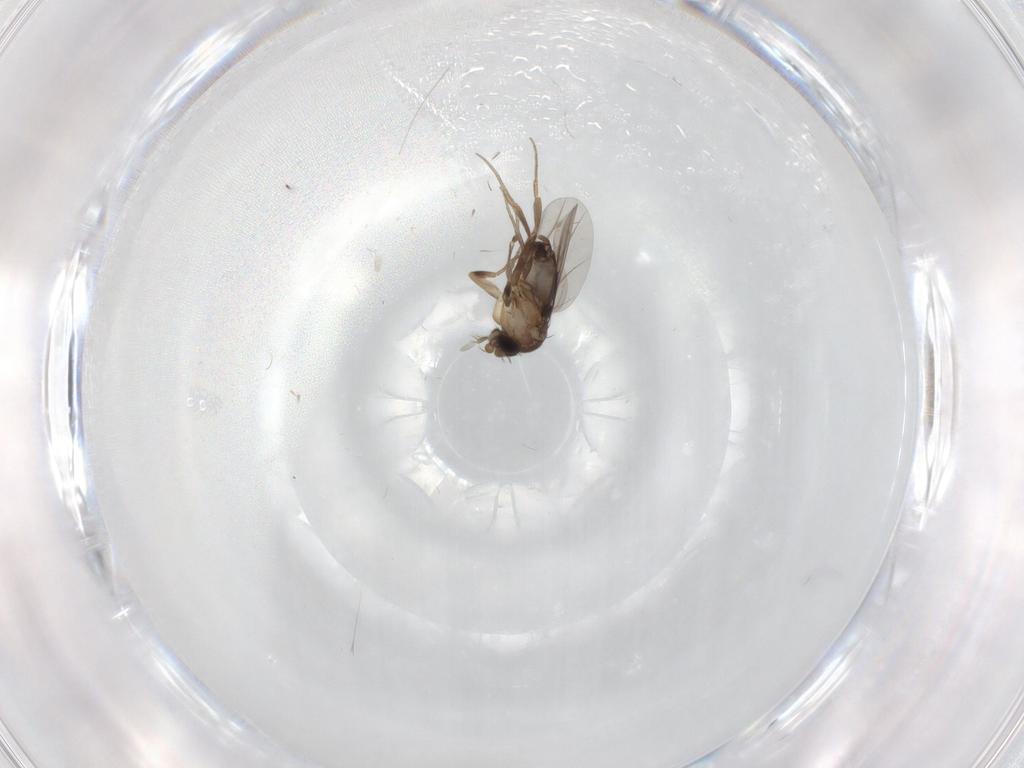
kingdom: Animalia
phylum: Arthropoda
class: Insecta
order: Diptera
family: Phoridae
